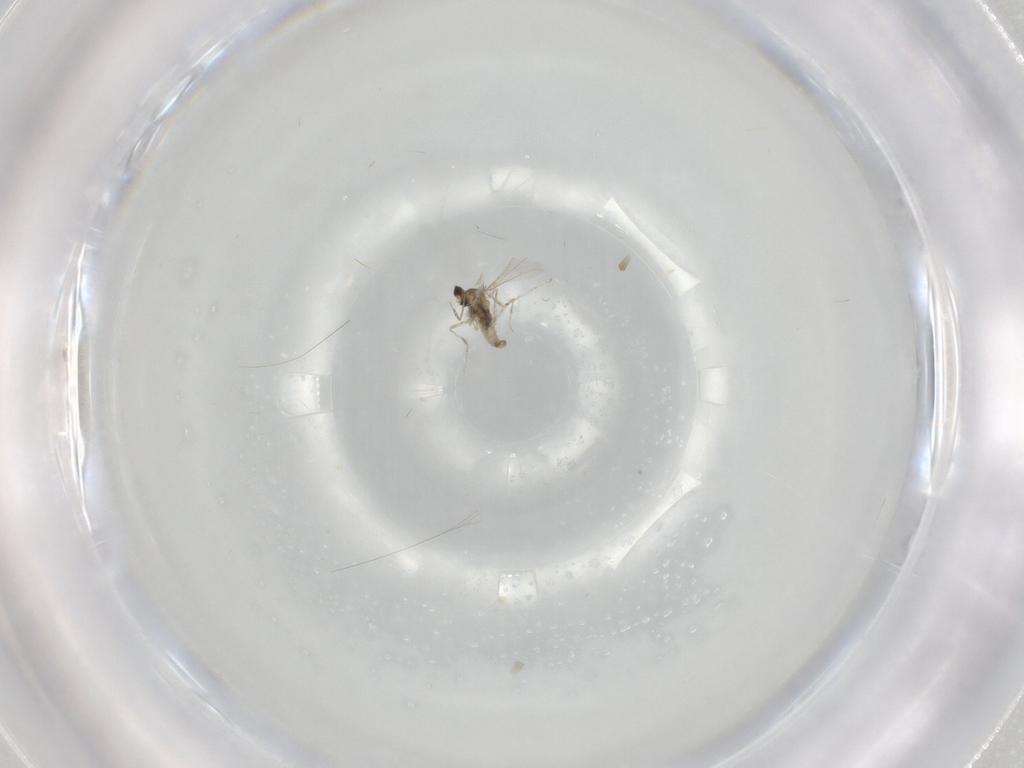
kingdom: Animalia
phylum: Arthropoda
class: Insecta
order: Diptera
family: Cecidomyiidae
